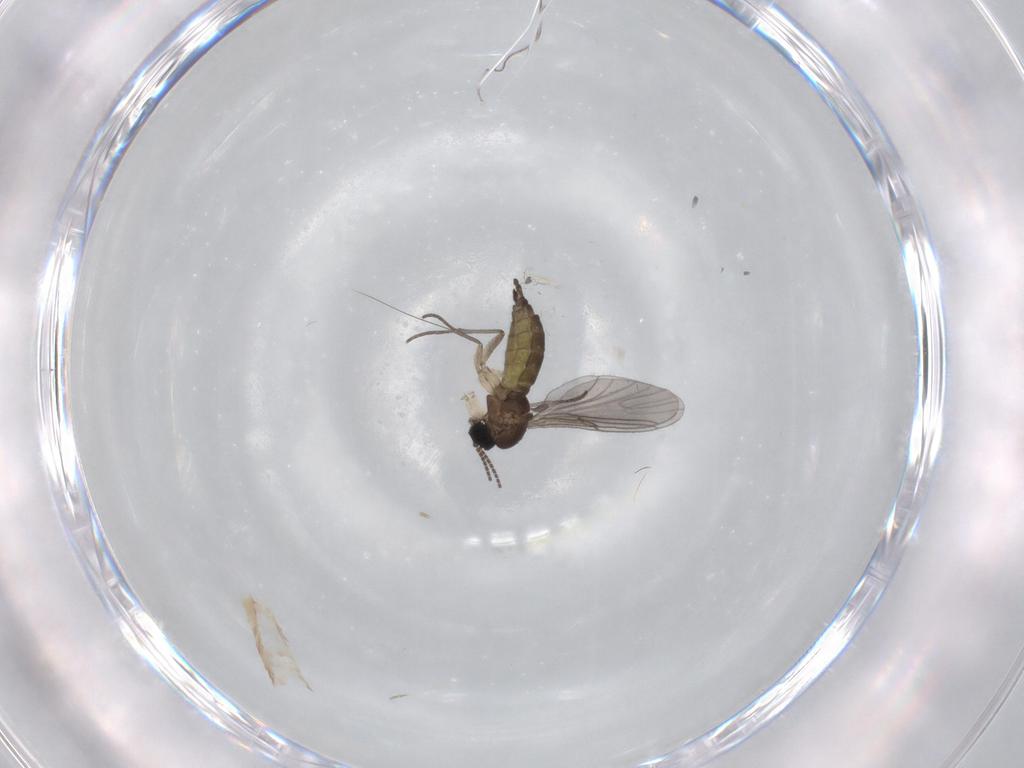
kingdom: Animalia
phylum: Arthropoda
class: Insecta
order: Diptera
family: Sciaridae
